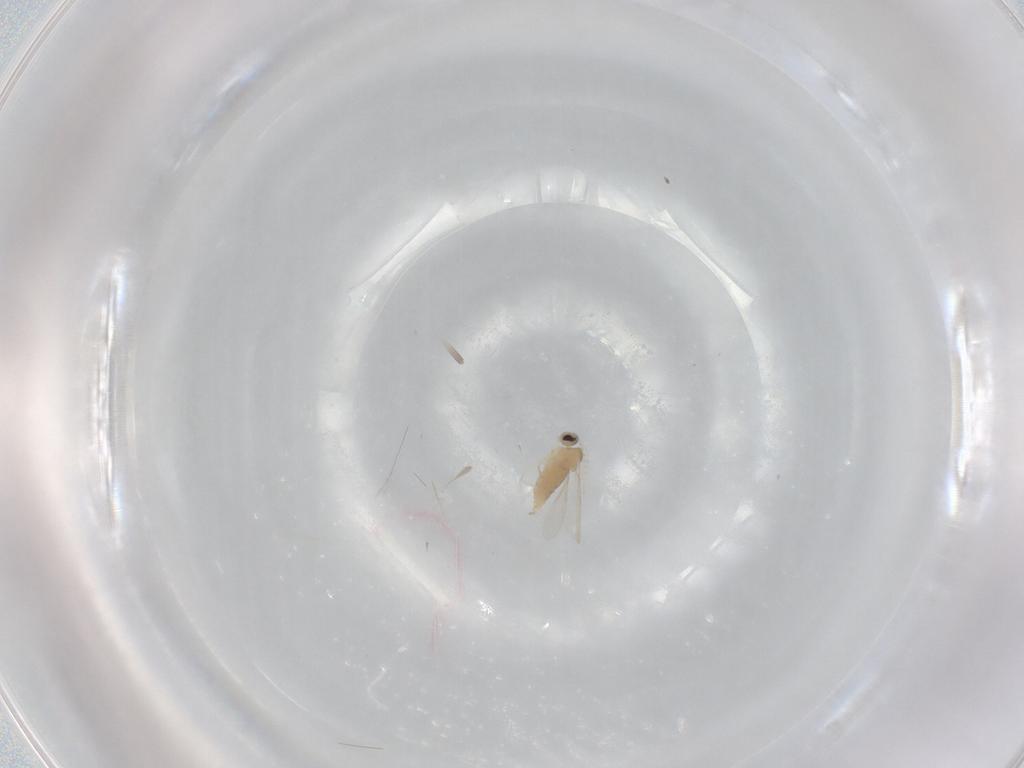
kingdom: Animalia
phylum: Arthropoda
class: Insecta
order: Diptera
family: Cecidomyiidae
